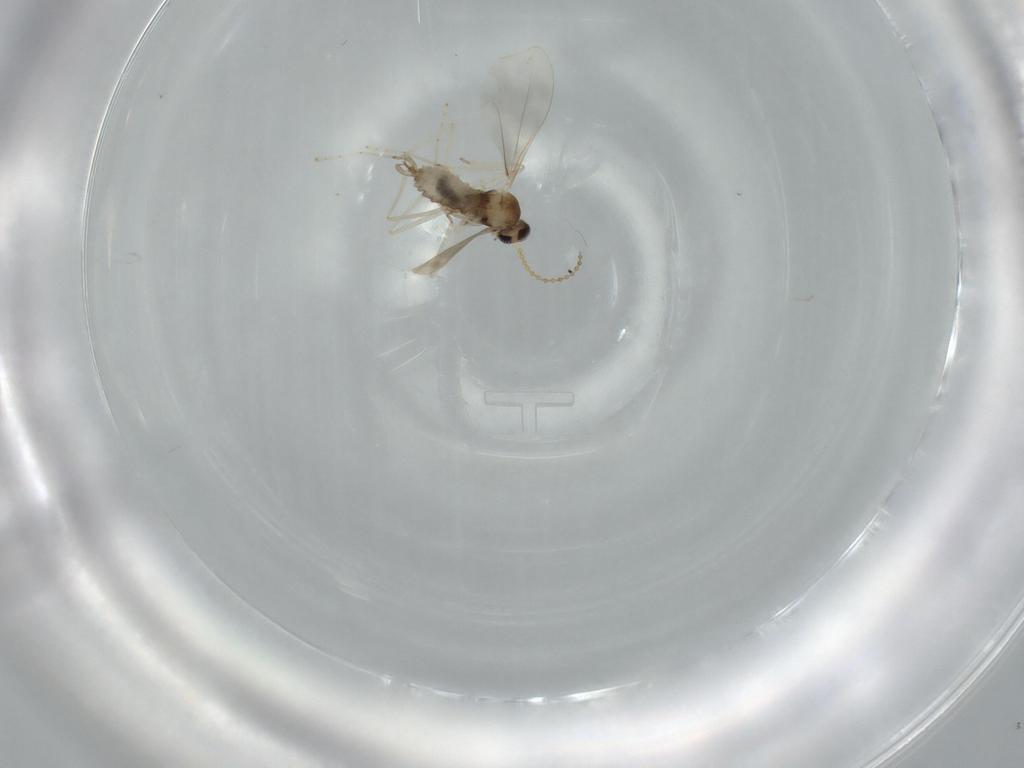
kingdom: Animalia
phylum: Arthropoda
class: Insecta
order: Diptera
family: Cecidomyiidae
